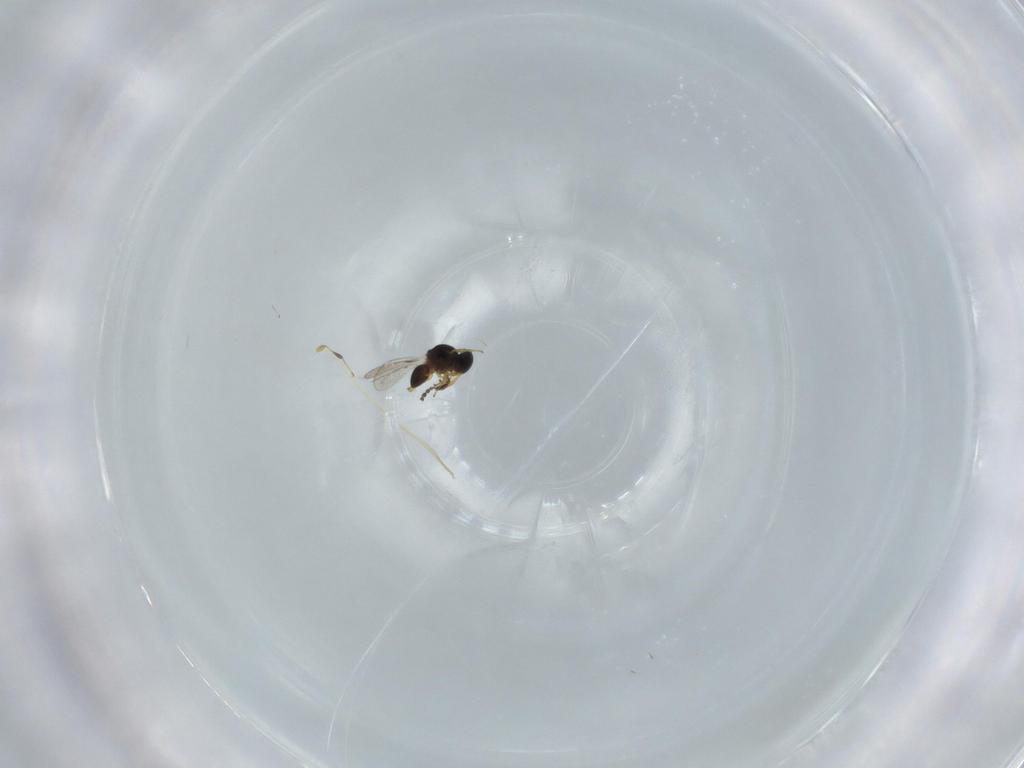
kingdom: Animalia
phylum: Arthropoda
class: Insecta
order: Hymenoptera
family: Platygastridae
